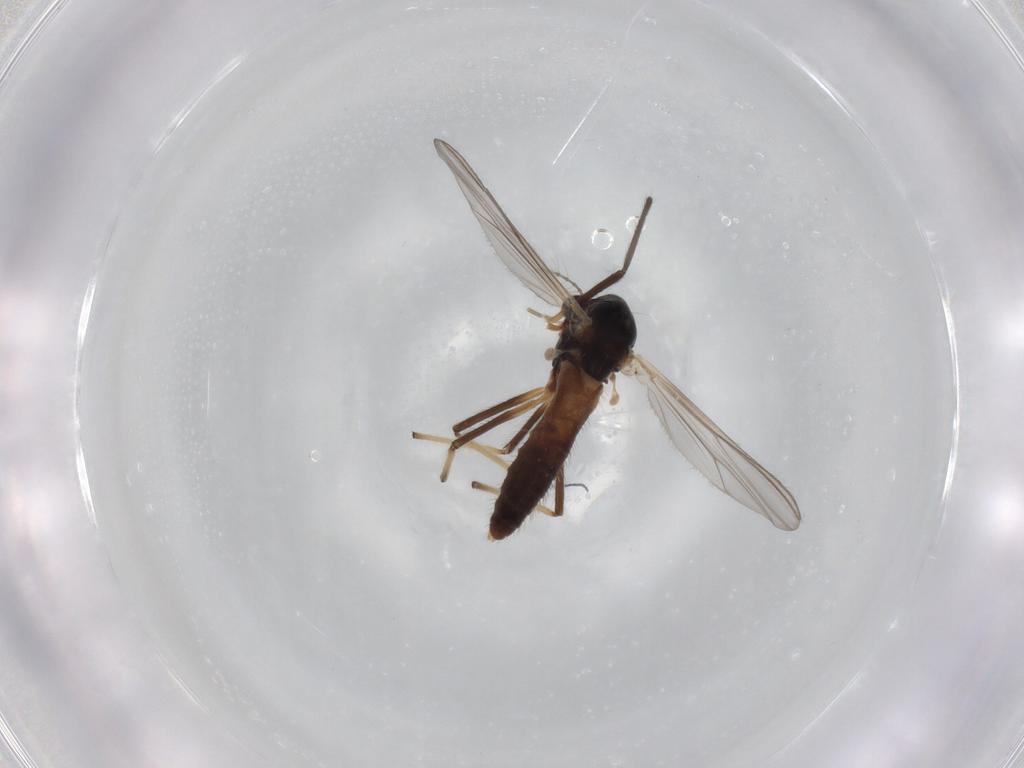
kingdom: Animalia
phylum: Arthropoda
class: Insecta
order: Diptera
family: Chironomidae
